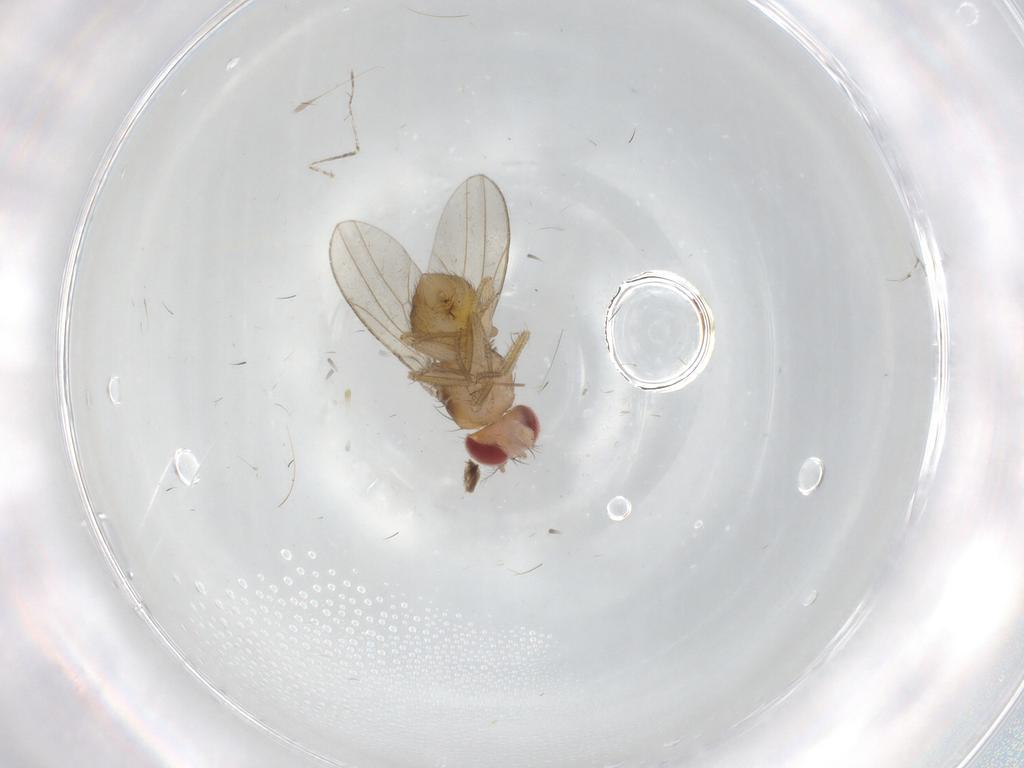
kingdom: Animalia
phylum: Arthropoda
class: Insecta
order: Diptera
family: Drosophilidae
